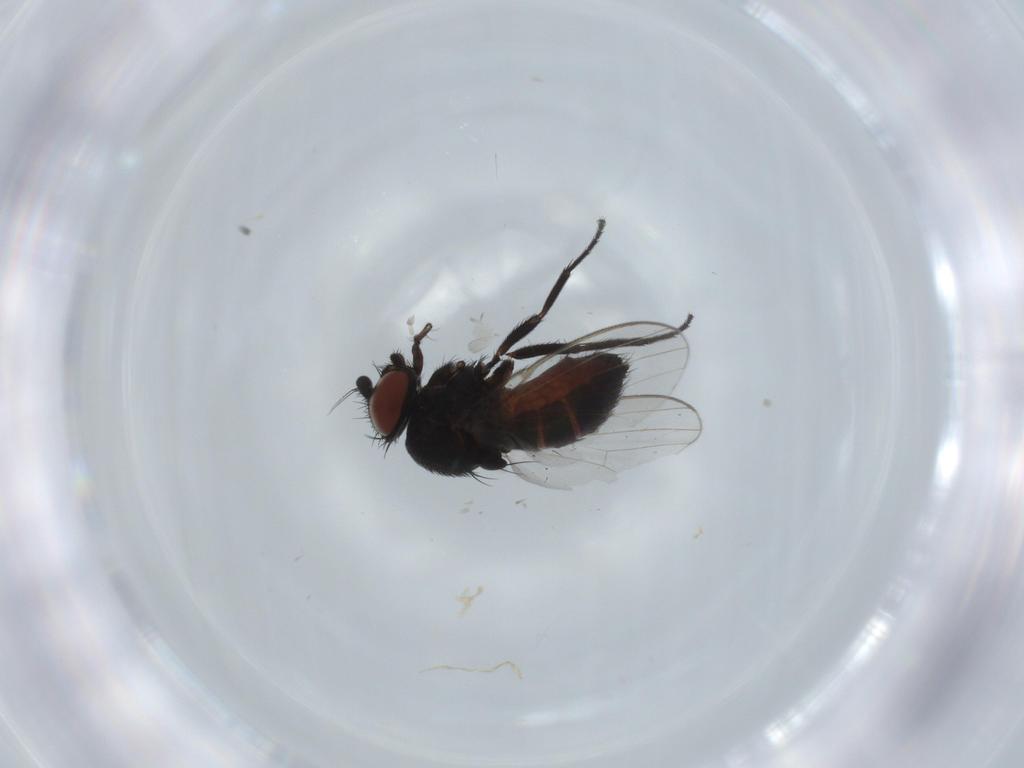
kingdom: Animalia
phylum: Arthropoda
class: Insecta
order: Diptera
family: Milichiidae
